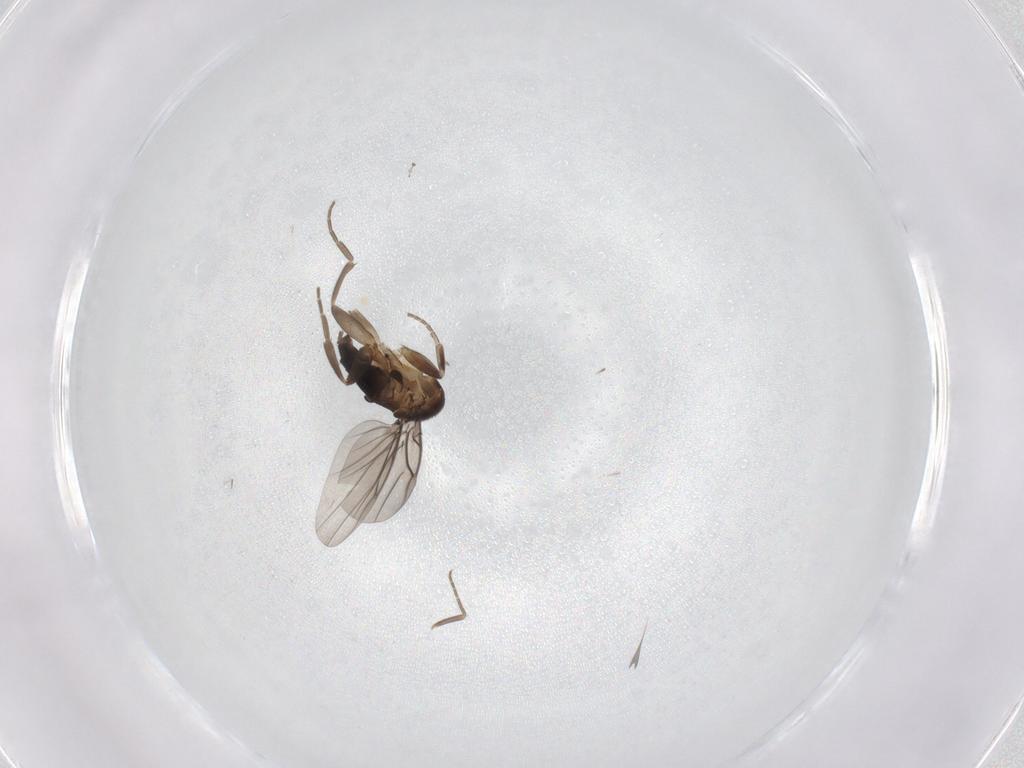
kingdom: Animalia
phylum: Arthropoda
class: Insecta
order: Diptera
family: Phoridae
